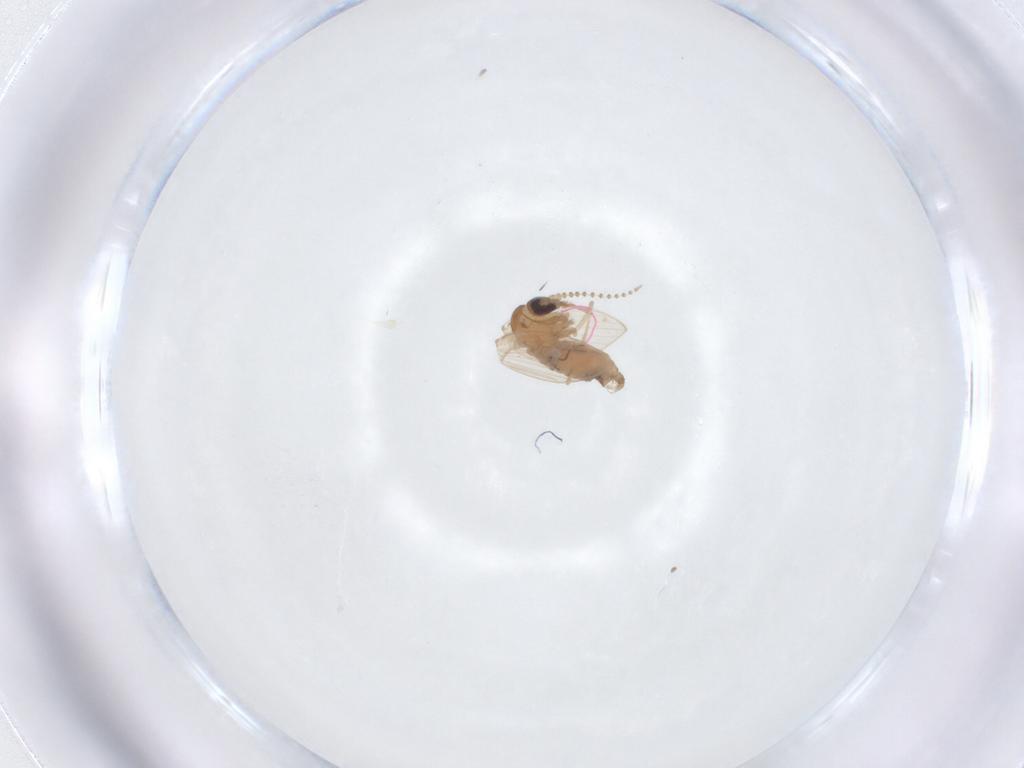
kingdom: Animalia
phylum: Arthropoda
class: Insecta
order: Diptera
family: Psychodidae
